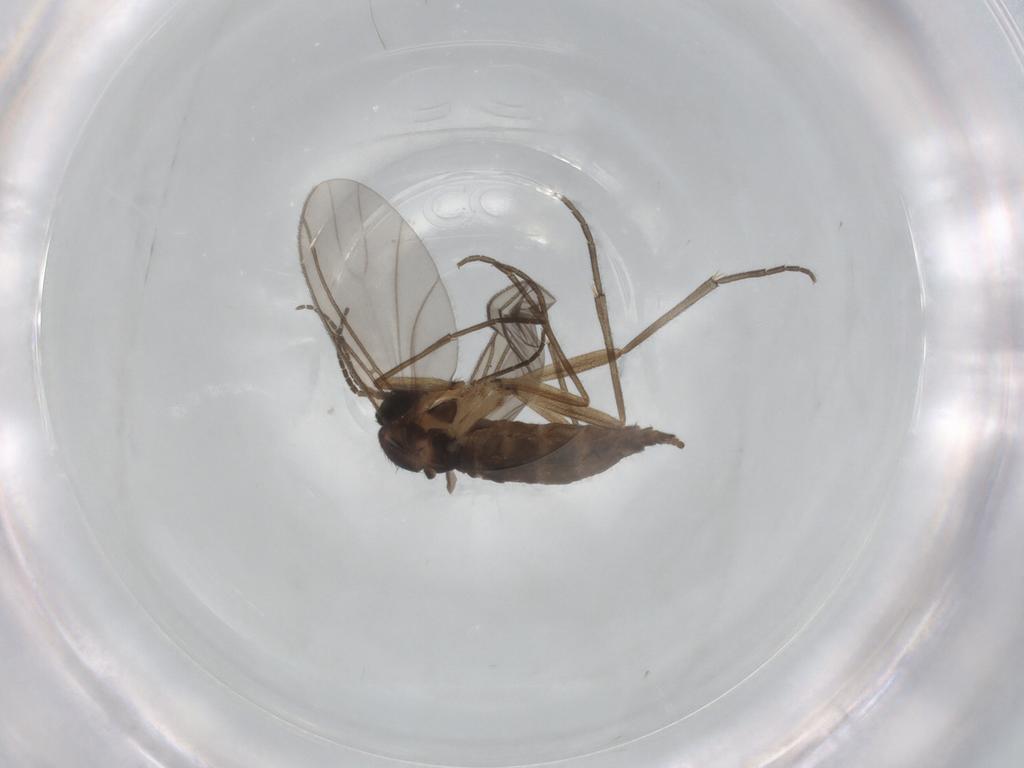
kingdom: Animalia
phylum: Arthropoda
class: Insecta
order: Diptera
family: Sciaridae
